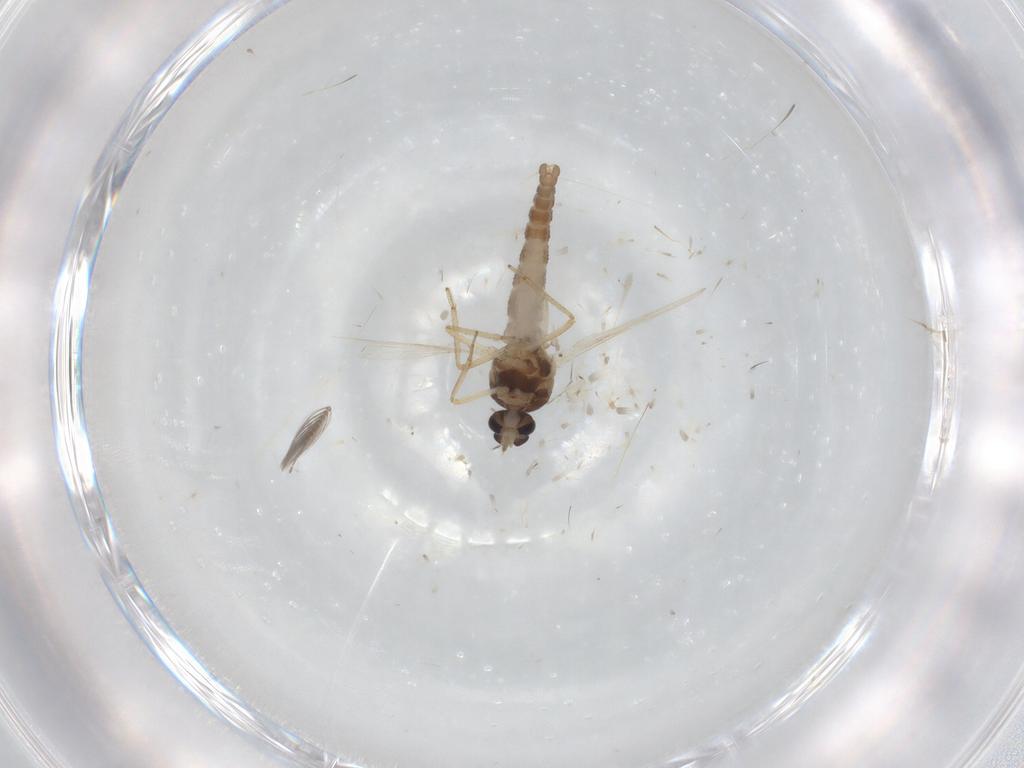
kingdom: Animalia
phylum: Arthropoda
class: Insecta
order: Diptera
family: Ceratopogonidae
